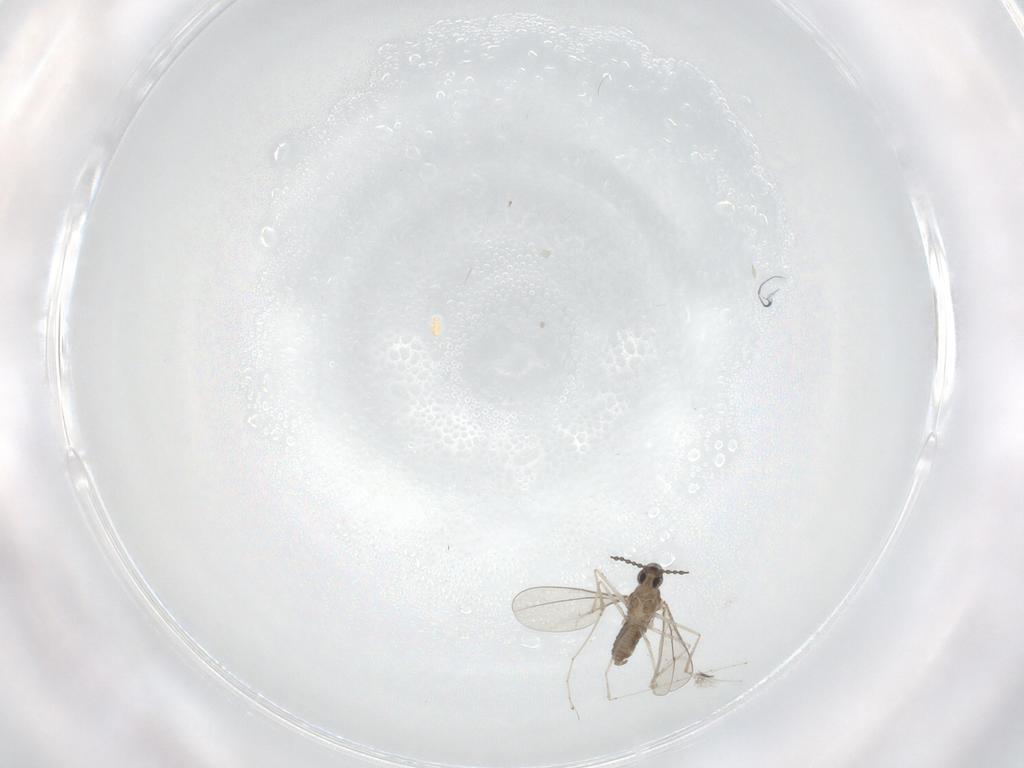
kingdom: Animalia
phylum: Arthropoda
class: Insecta
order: Diptera
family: Cecidomyiidae
